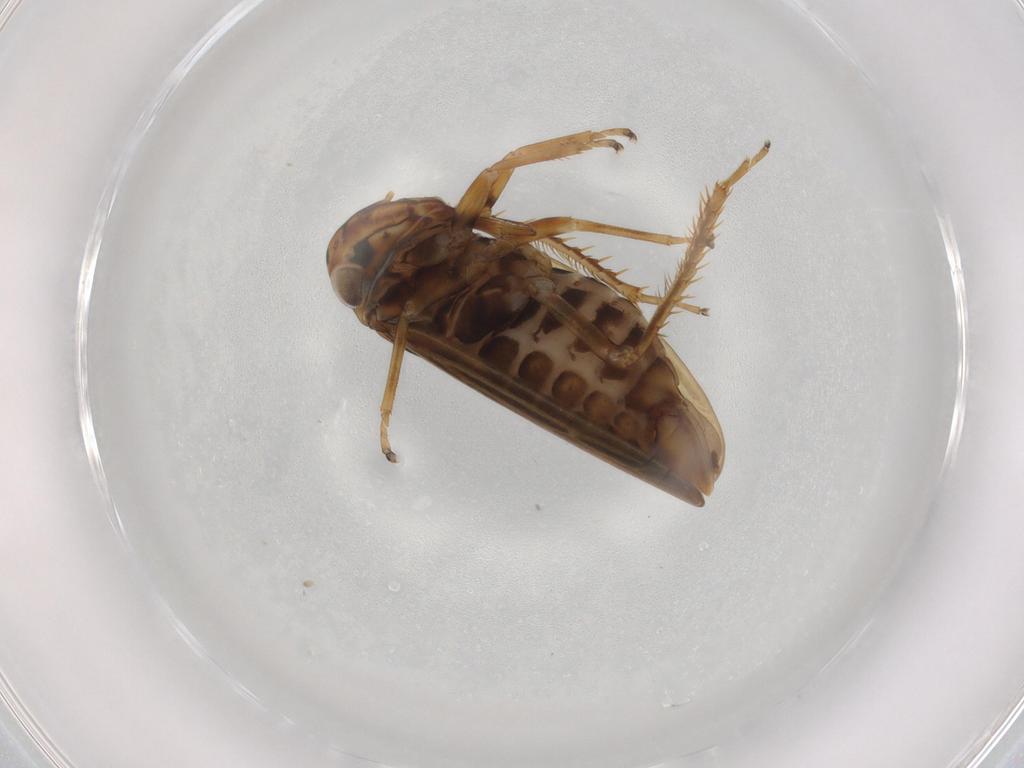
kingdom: Animalia
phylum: Arthropoda
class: Insecta
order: Hemiptera
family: Cicadellidae
